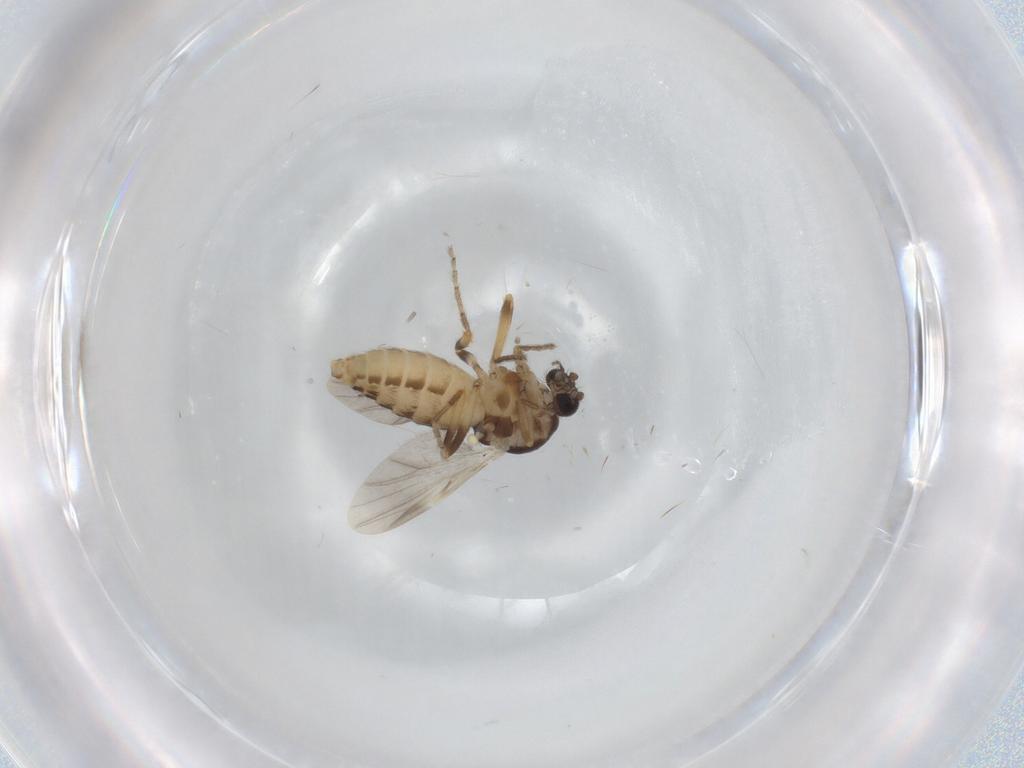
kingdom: Animalia
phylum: Arthropoda
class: Insecta
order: Diptera
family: Ceratopogonidae
